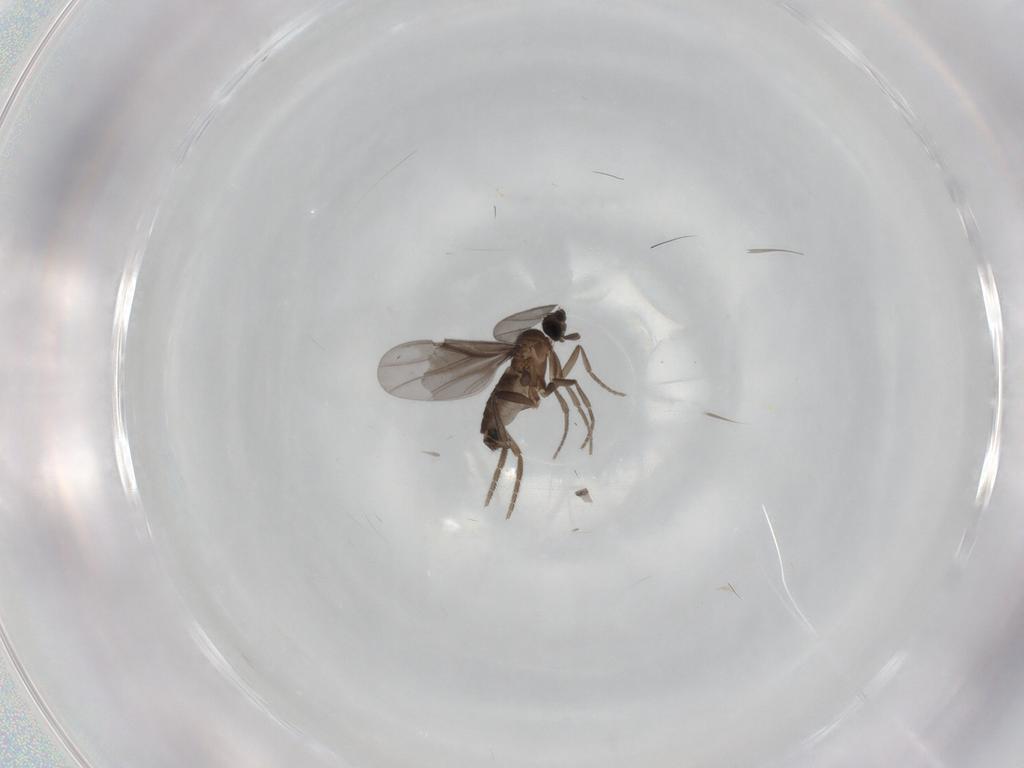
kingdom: Animalia
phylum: Arthropoda
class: Insecta
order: Diptera
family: Phoridae
